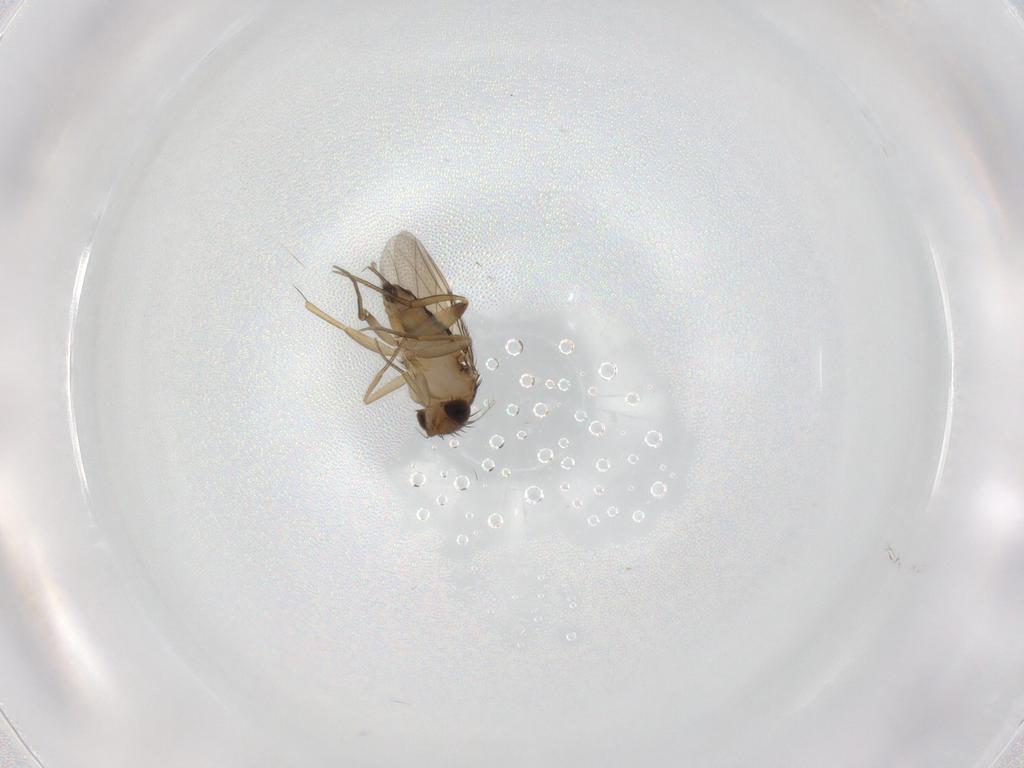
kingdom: Animalia
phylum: Arthropoda
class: Insecta
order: Diptera
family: Phoridae
